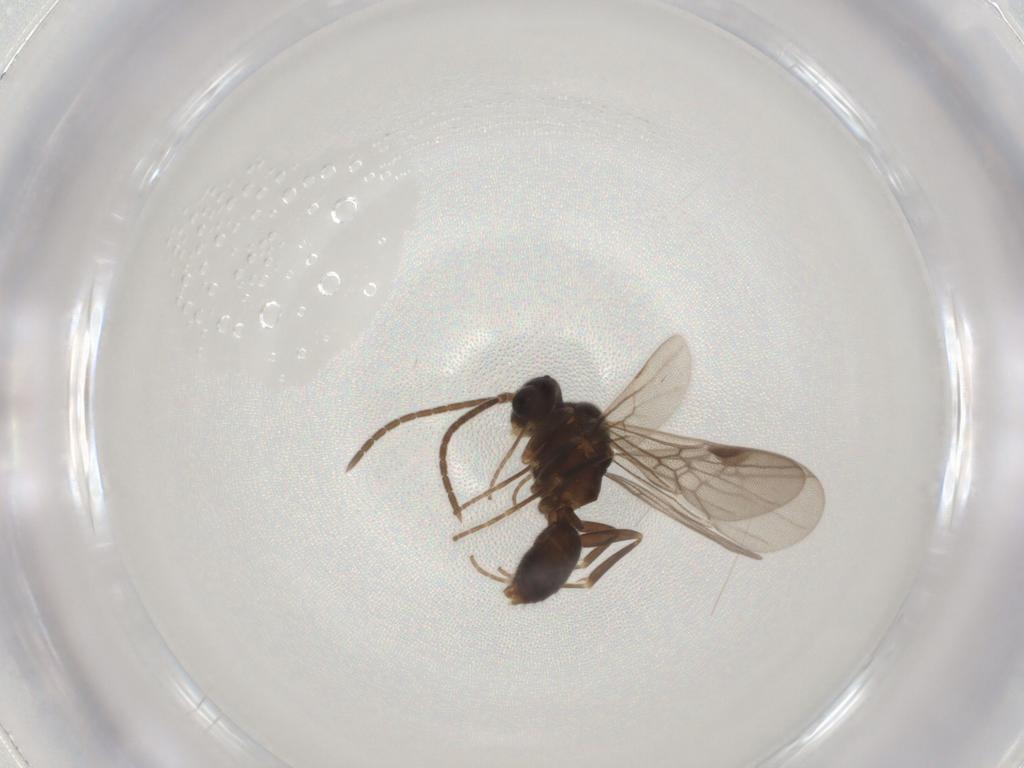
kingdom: Animalia
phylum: Arthropoda
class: Insecta
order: Hymenoptera
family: Formicidae
